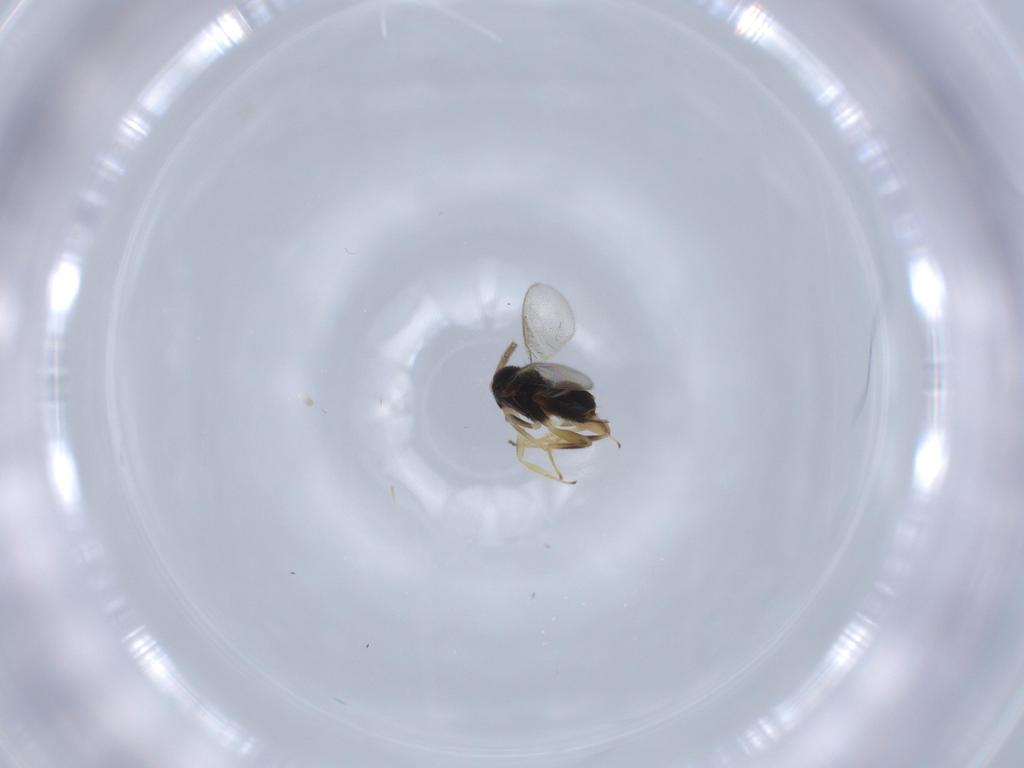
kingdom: Animalia
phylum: Arthropoda
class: Insecta
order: Hymenoptera
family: Aphelinidae
